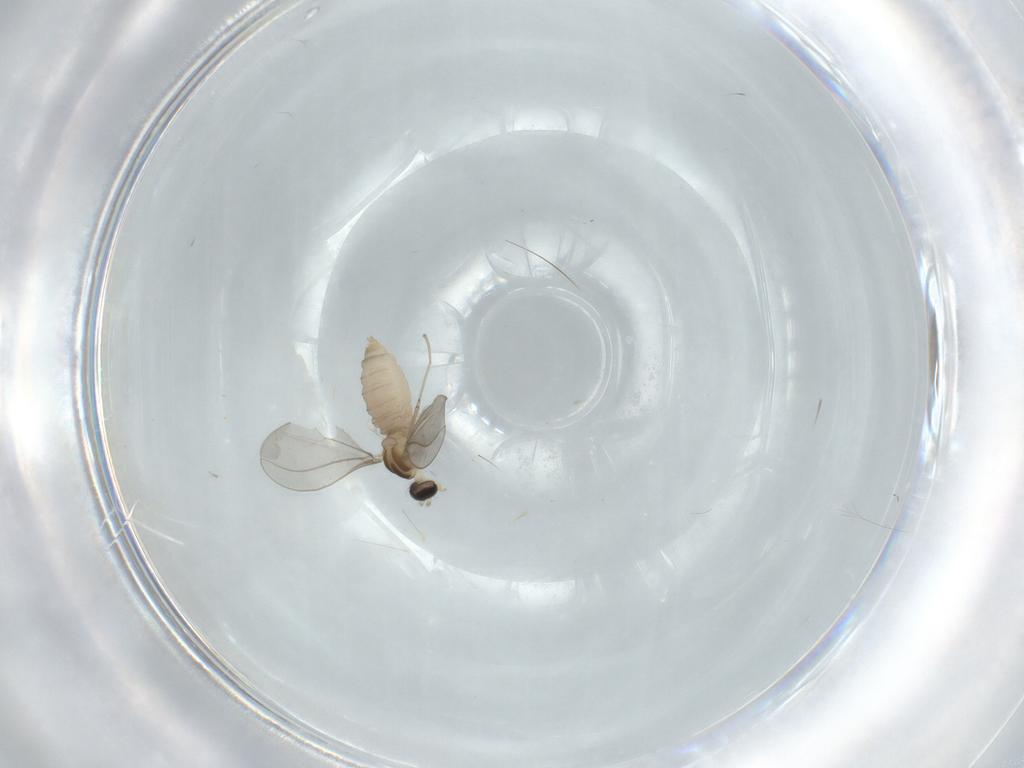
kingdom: Animalia
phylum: Arthropoda
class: Insecta
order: Diptera
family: Cecidomyiidae
